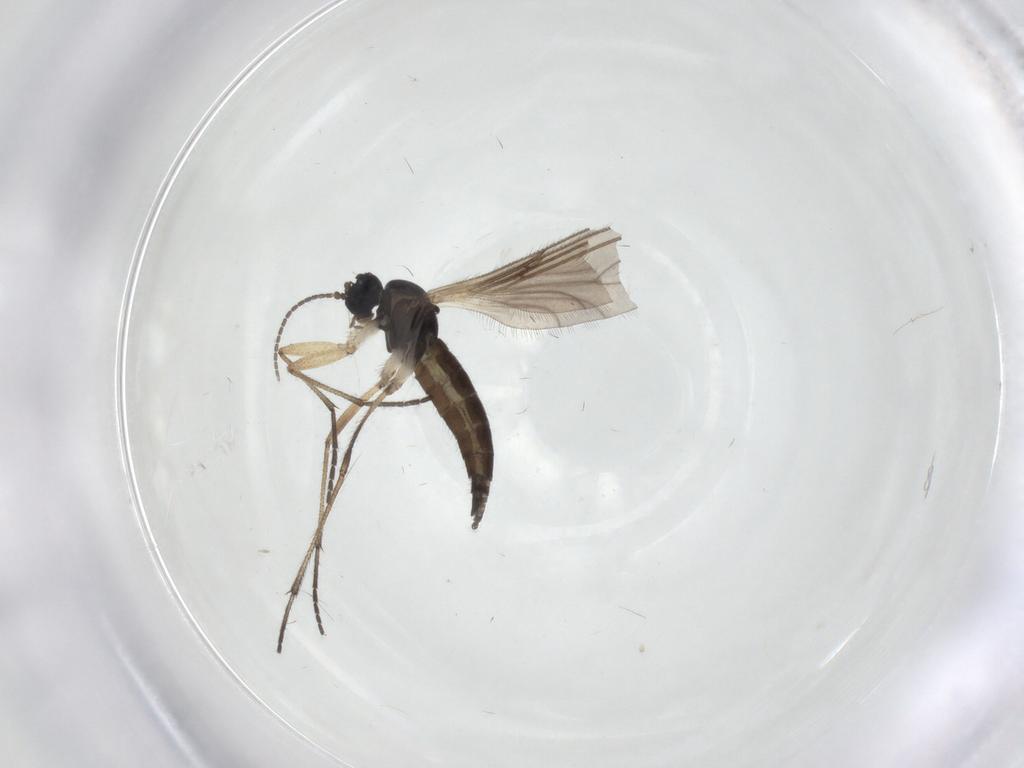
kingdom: Animalia
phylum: Arthropoda
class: Insecta
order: Diptera
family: Sciaridae
